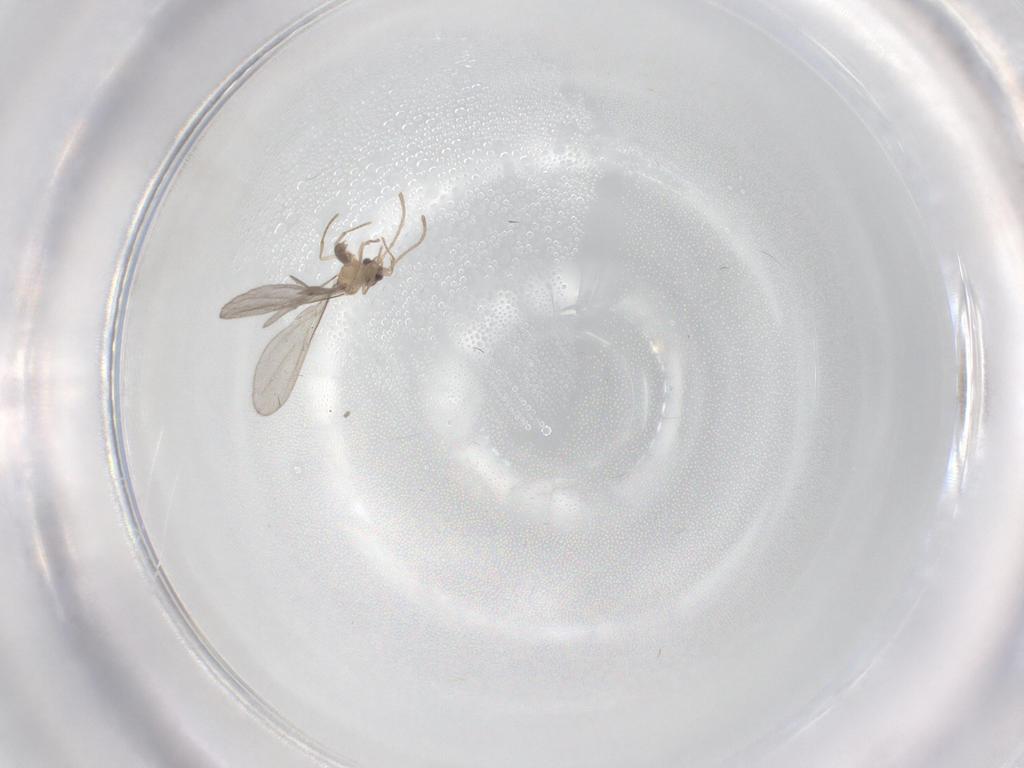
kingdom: Animalia
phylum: Arthropoda
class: Insecta
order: Hymenoptera
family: Formicidae
